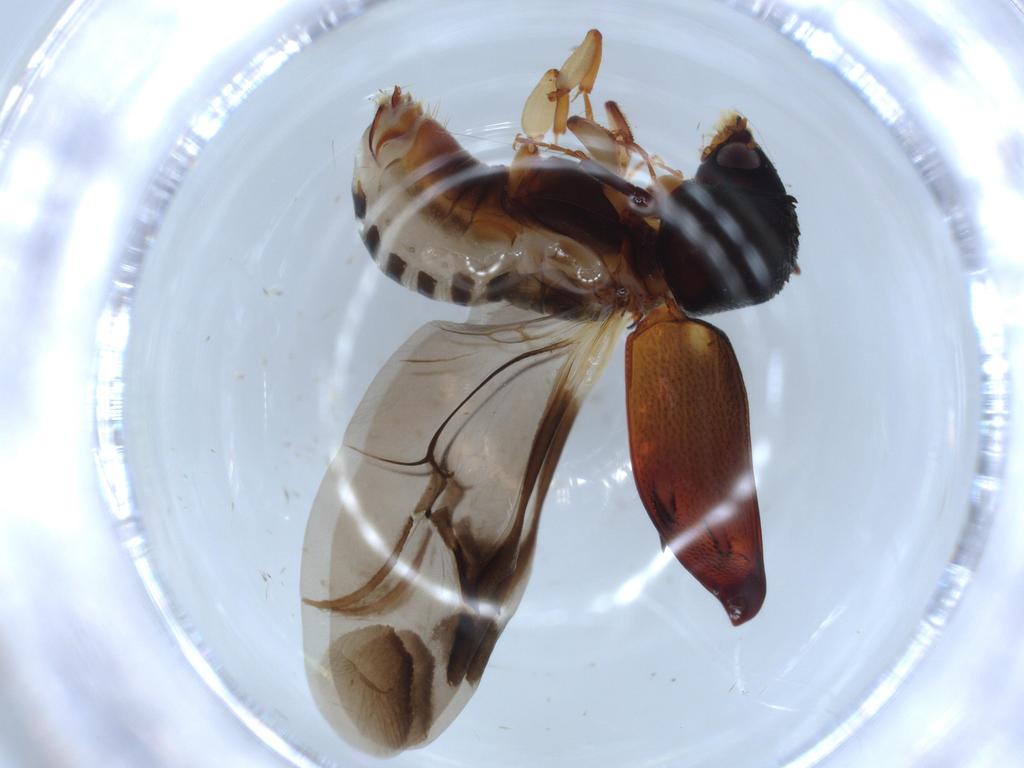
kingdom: Animalia
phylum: Arthropoda
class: Insecta
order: Coleoptera
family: Bostrichidae
